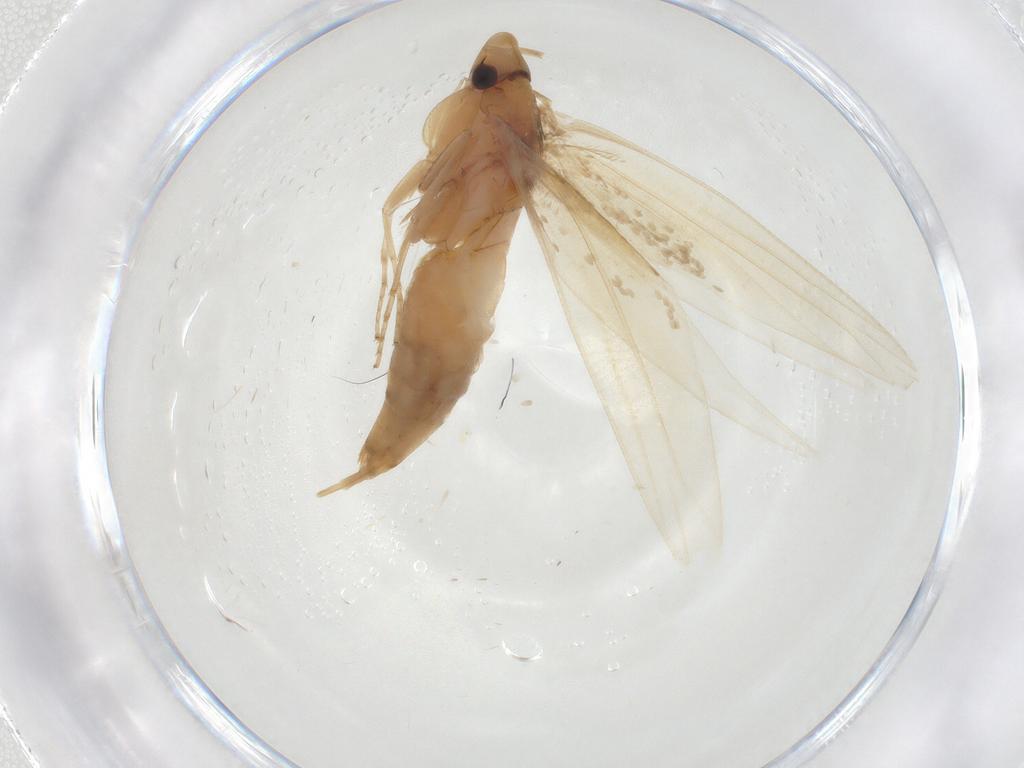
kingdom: Animalia
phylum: Arthropoda
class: Insecta
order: Lepidoptera
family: Tineidae
